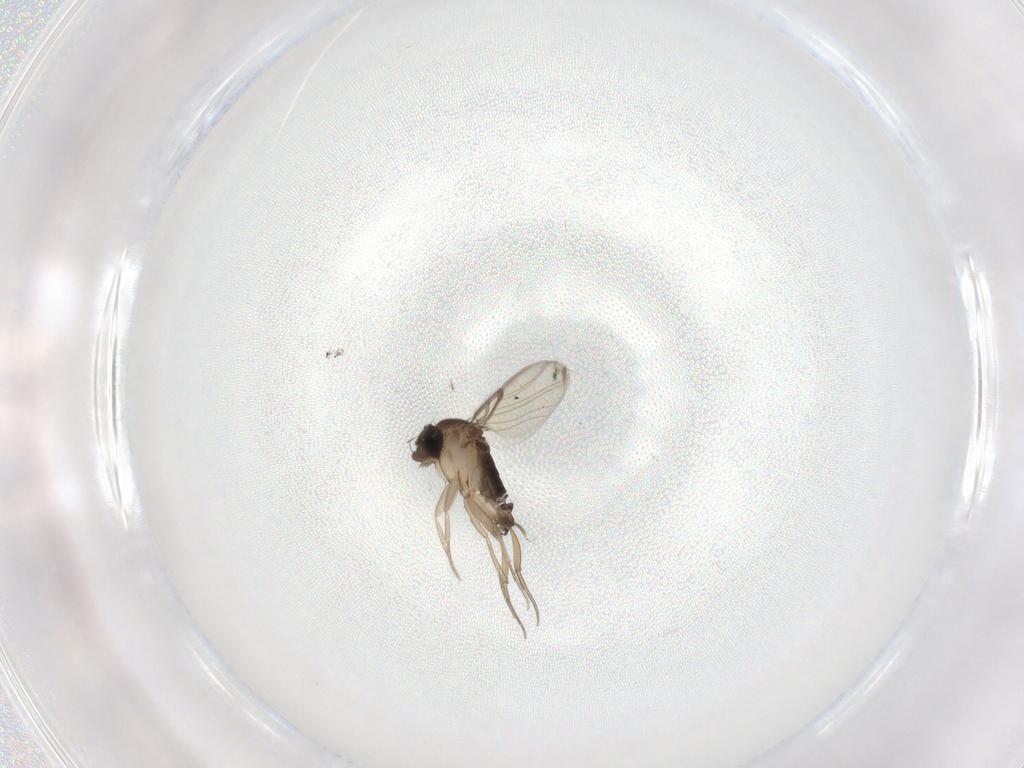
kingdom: Animalia
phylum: Arthropoda
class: Insecta
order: Diptera
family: Phoridae
